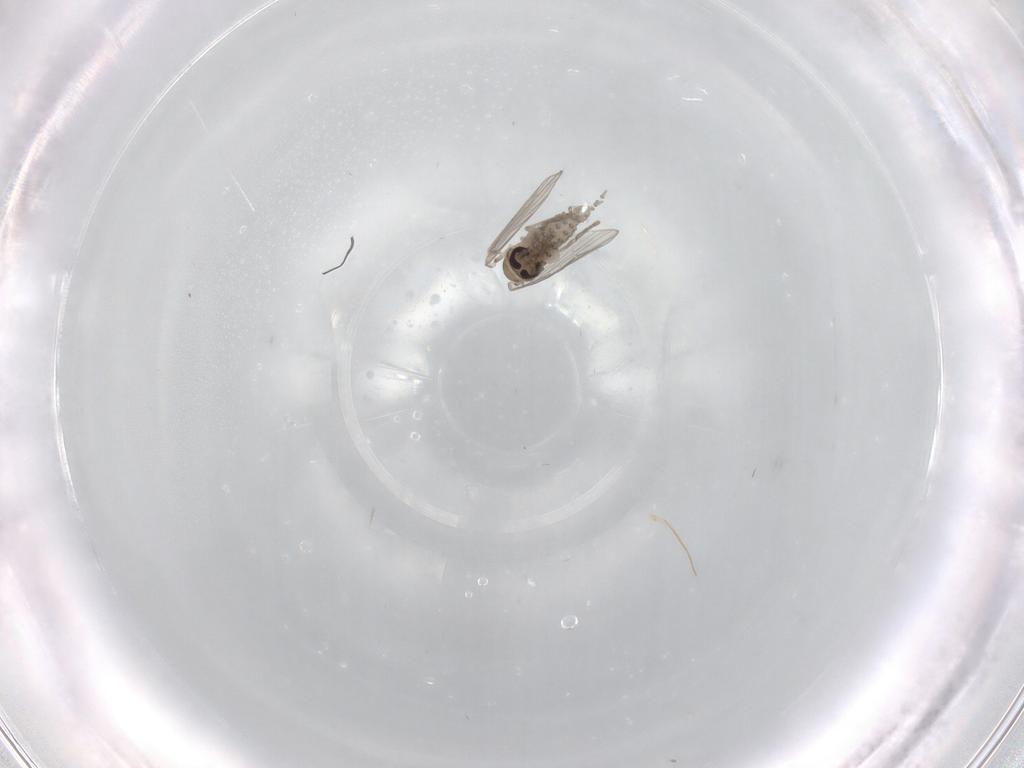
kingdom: Animalia
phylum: Arthropoda
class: Insecta
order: Diptera
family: Psychodidae
